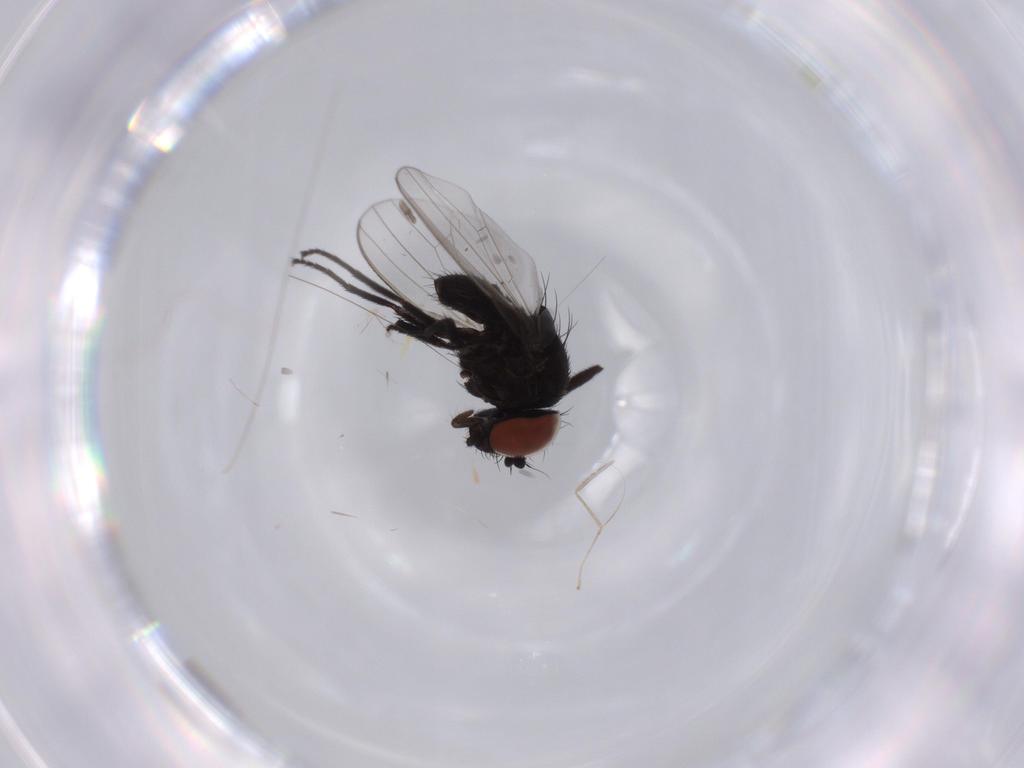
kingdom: Animalia
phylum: Arthropoda
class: Insecta
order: Diptera
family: Milichiidae
